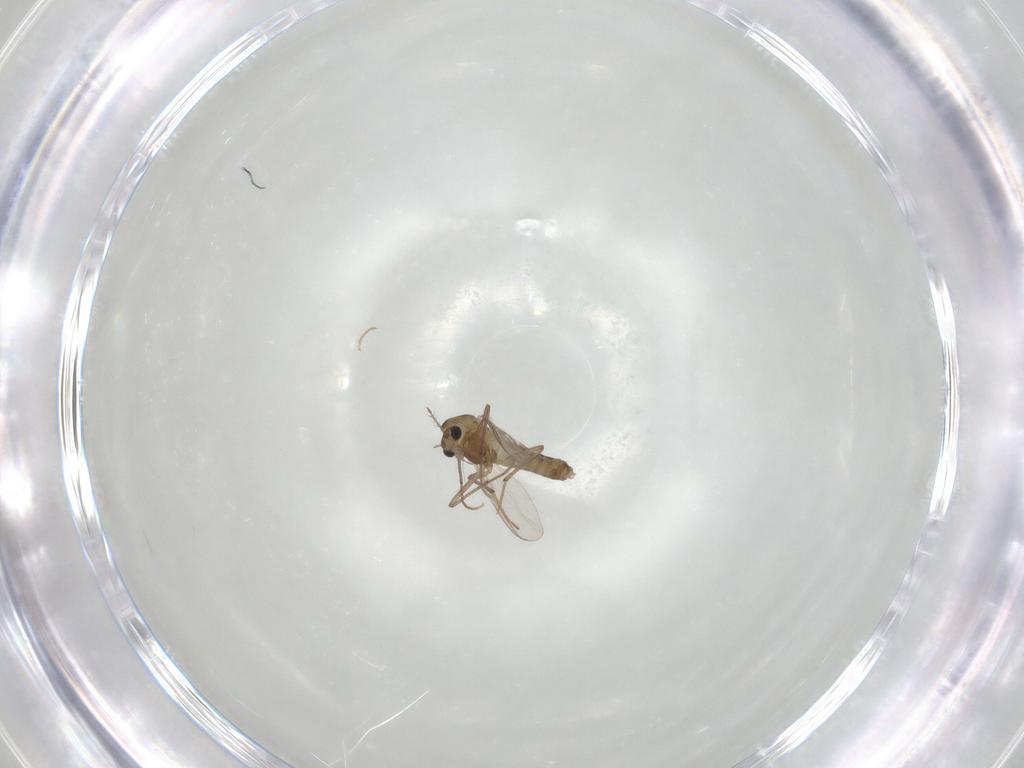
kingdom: Animalia
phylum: Arthropoda
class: Insecta
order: Diptera
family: Chironomidae
